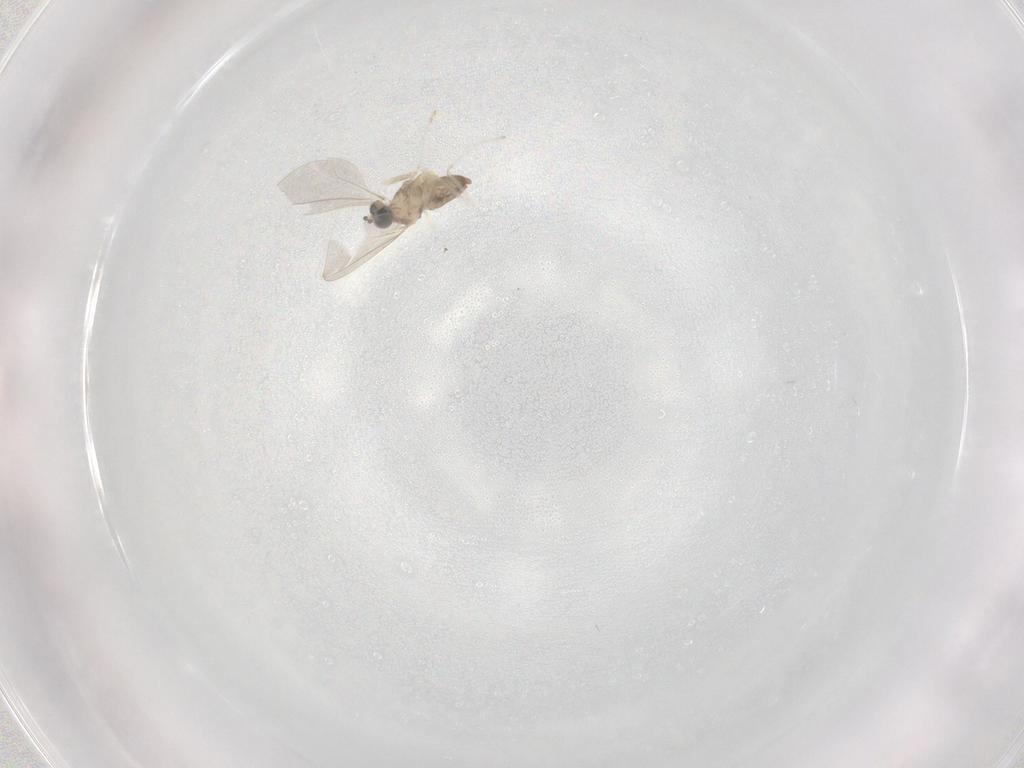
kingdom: Animalia
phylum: Arthropoda
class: Insecta
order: Diptera
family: Cecidomyiidae
